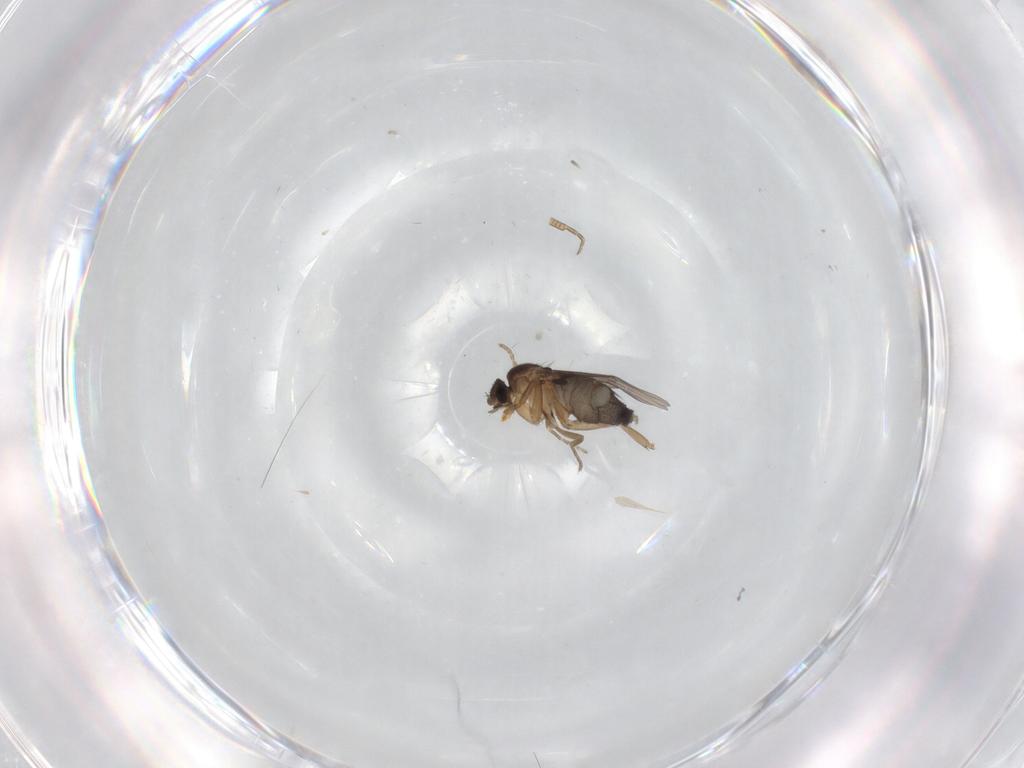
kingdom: Animalia
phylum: Arthropoda
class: Insecta
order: Diptera
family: Phoridae
